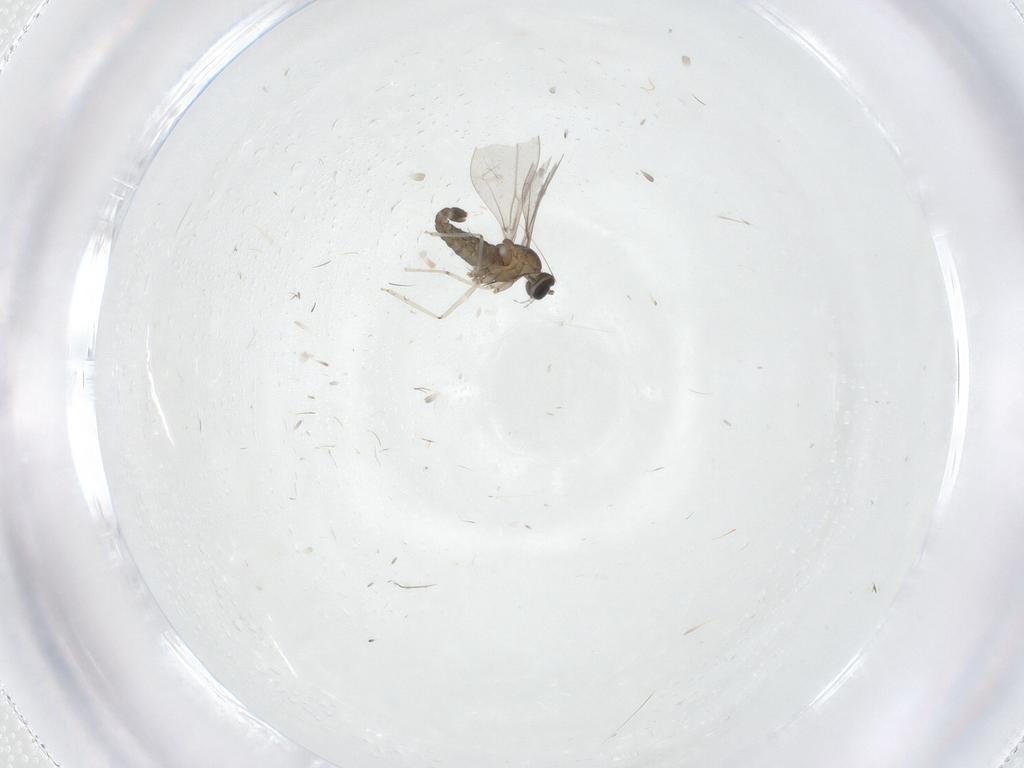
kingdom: Animalia
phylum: Arthropoda
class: Insecta
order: Diptera
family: Cecidomyiidae
